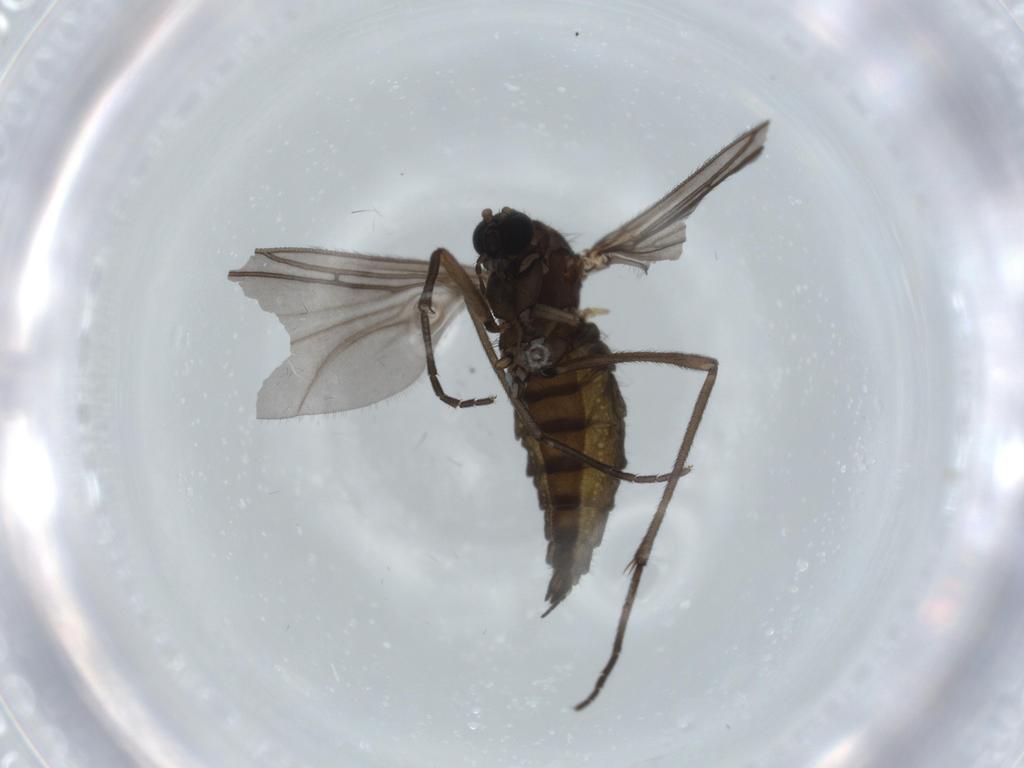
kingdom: Animalia
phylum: Arthropoda
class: Insecta
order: Diptera
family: Sciaridae
